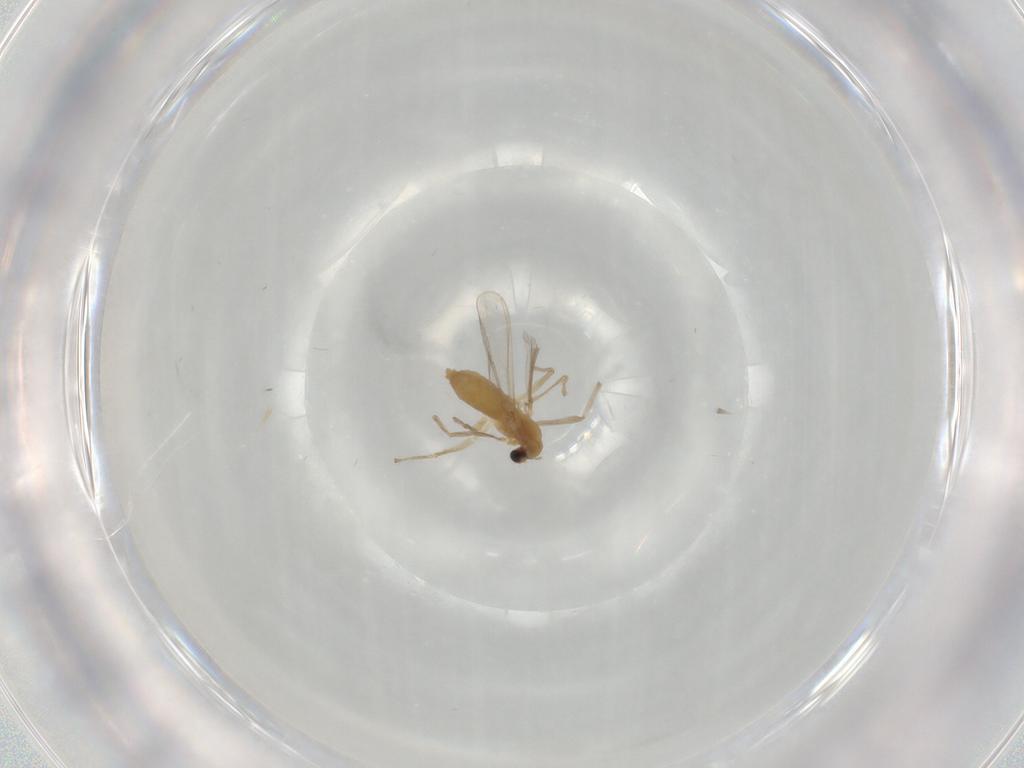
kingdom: Animalia
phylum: Arthropoda
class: Insecta
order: Diptera
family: Chironomidae
